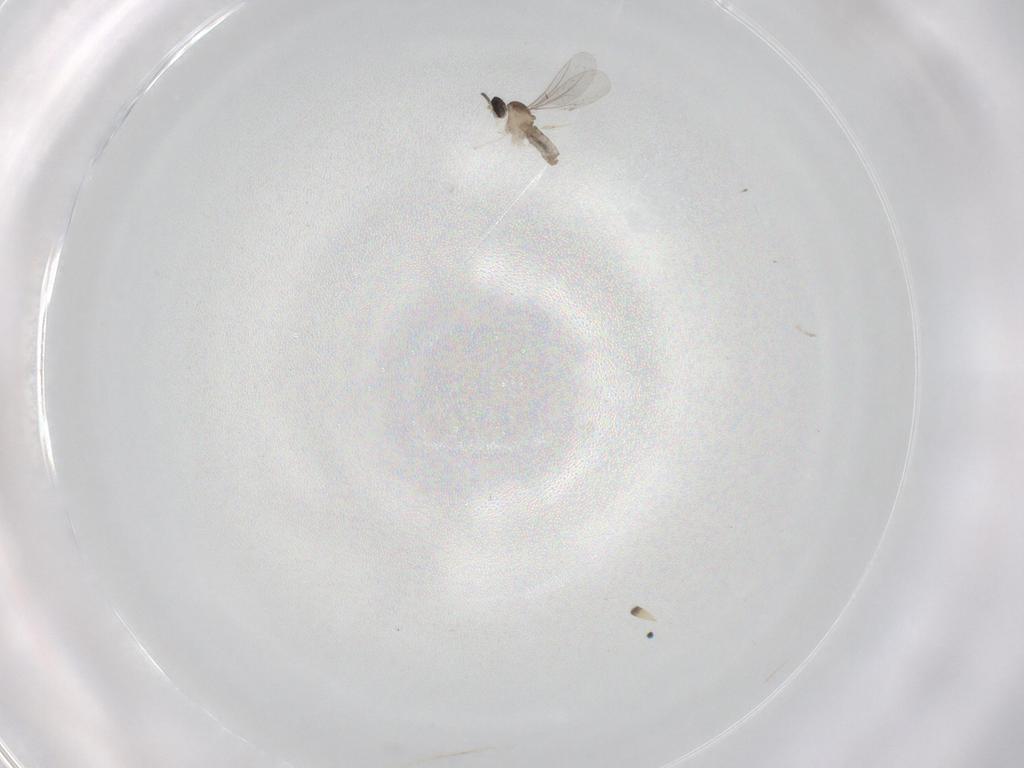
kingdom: Animalia
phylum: Arthropoda
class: Insecta
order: Diptera
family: Cecidomyiidae
